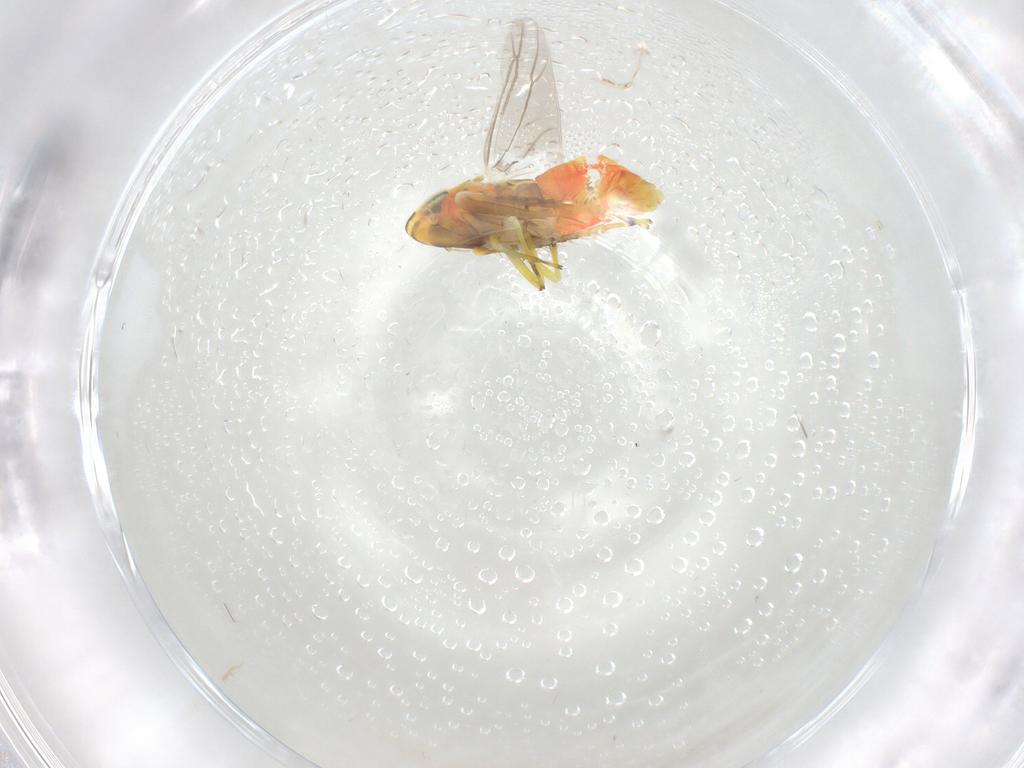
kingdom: Animalia
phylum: Arthropoda
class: Insecta
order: Hemiptera
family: Cicadellidae
